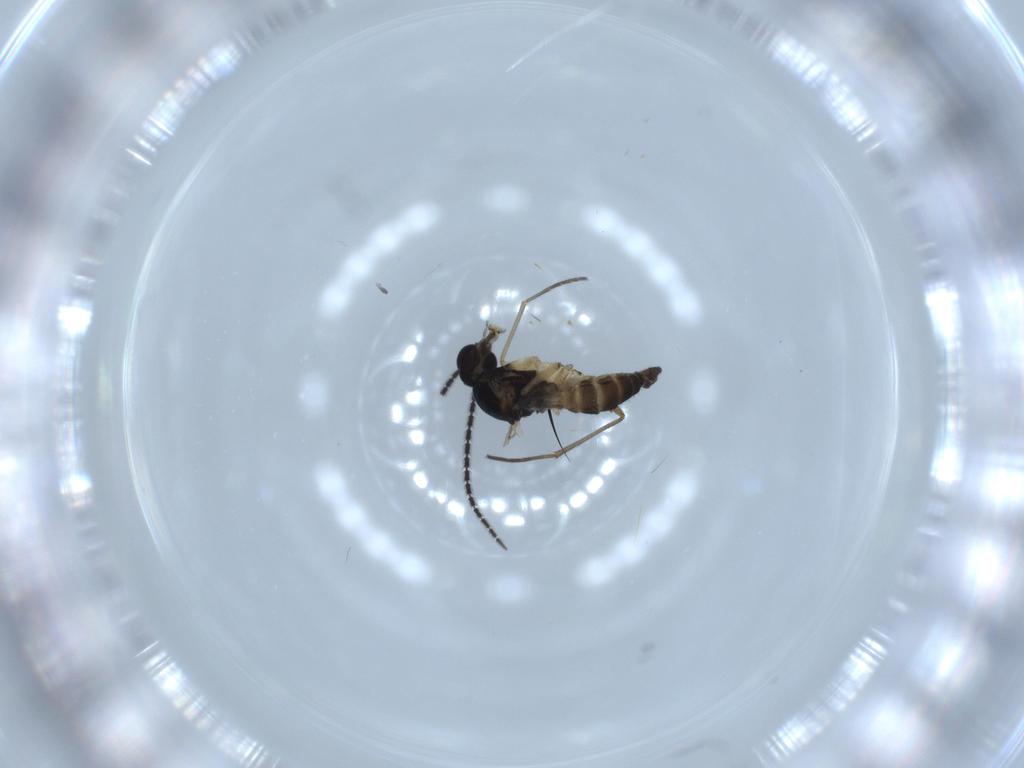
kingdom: Animalia
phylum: Arthropoda
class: Insecta
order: Diptera
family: Sciaridae
